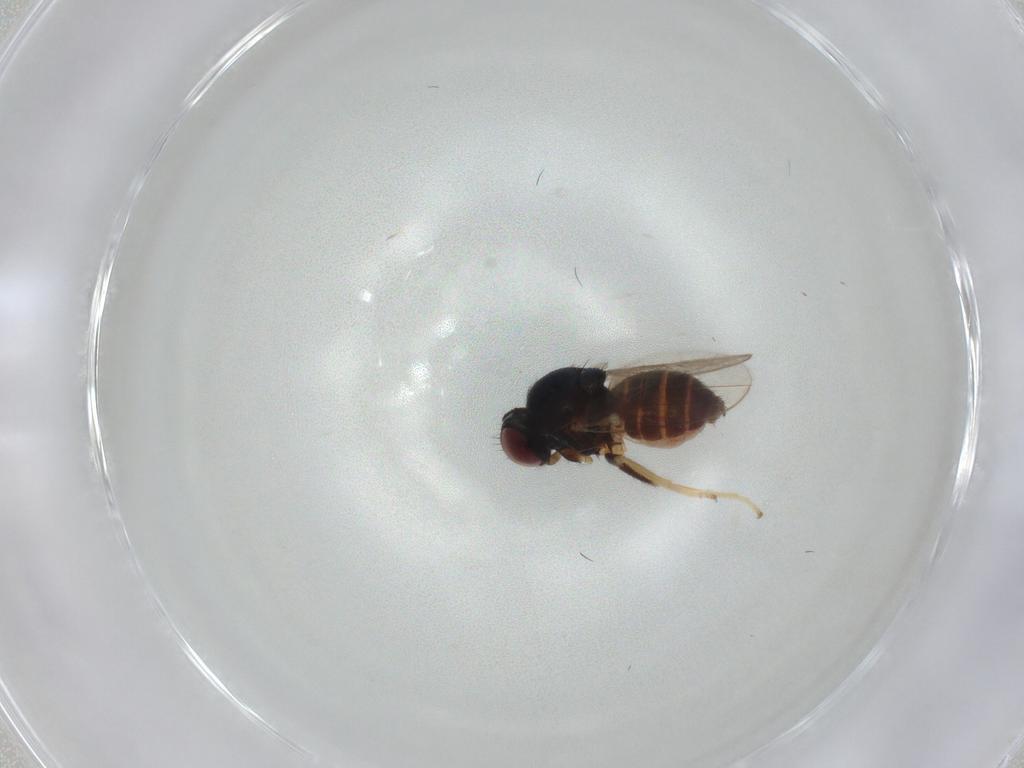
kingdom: Animalia
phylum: Arthropoda
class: Insecta
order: Diptera
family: Chloropidae
